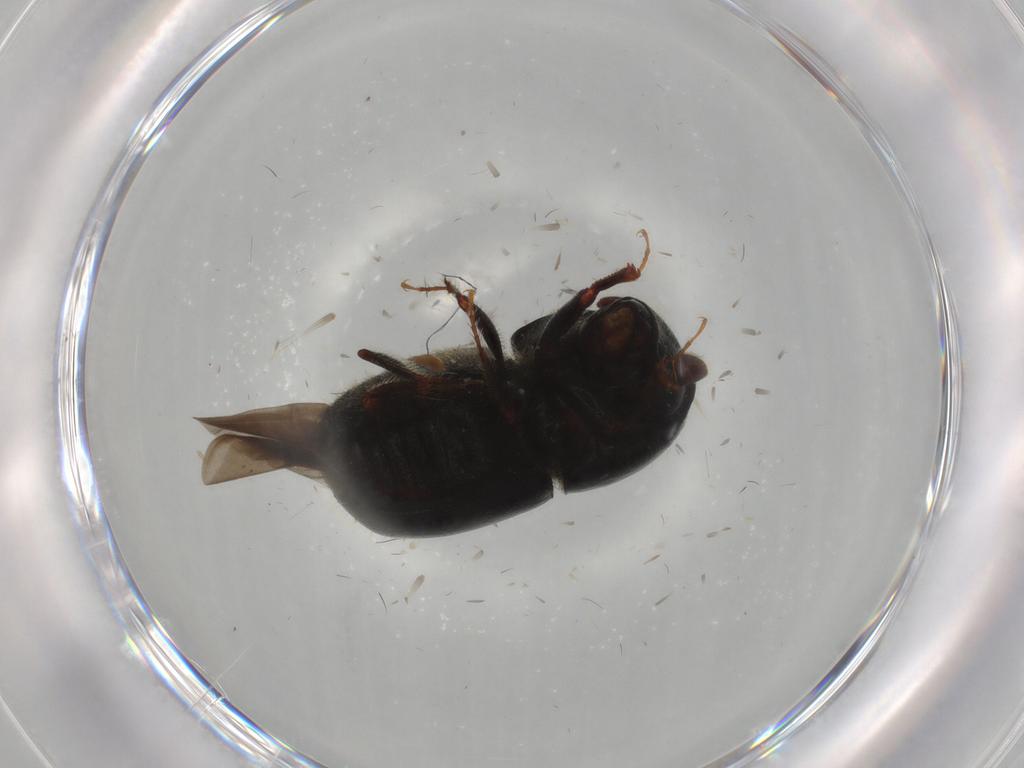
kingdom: Animalia
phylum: Arthropoda
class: Insecta
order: Coleoptera
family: Curculionidae
